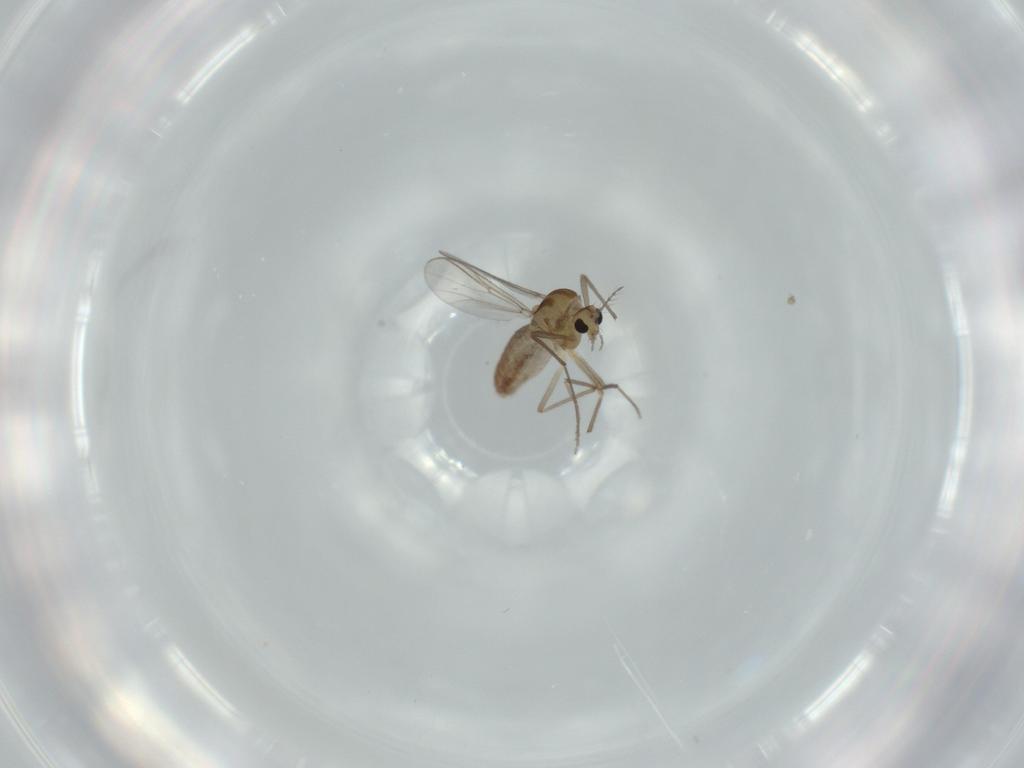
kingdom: Animalia
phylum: Arthropoda
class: Insecta
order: Diptera
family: Chironomidae
